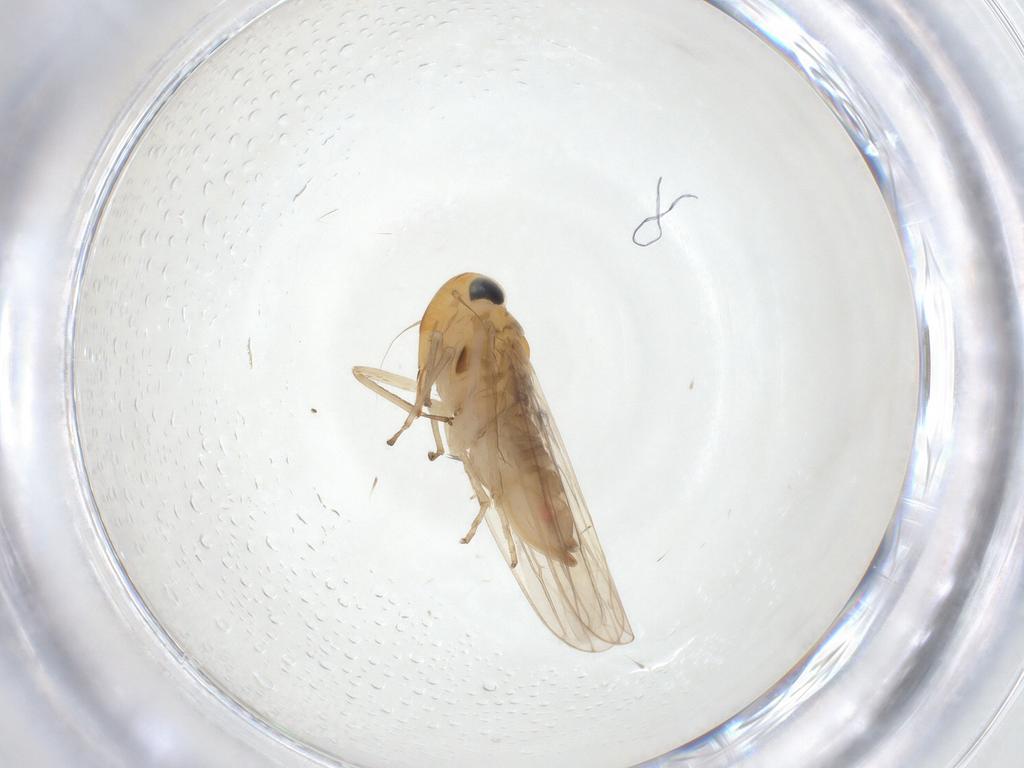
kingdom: Animalia
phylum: Arthropoda
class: Insecta
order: Hemiptera
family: Cicadellidae
